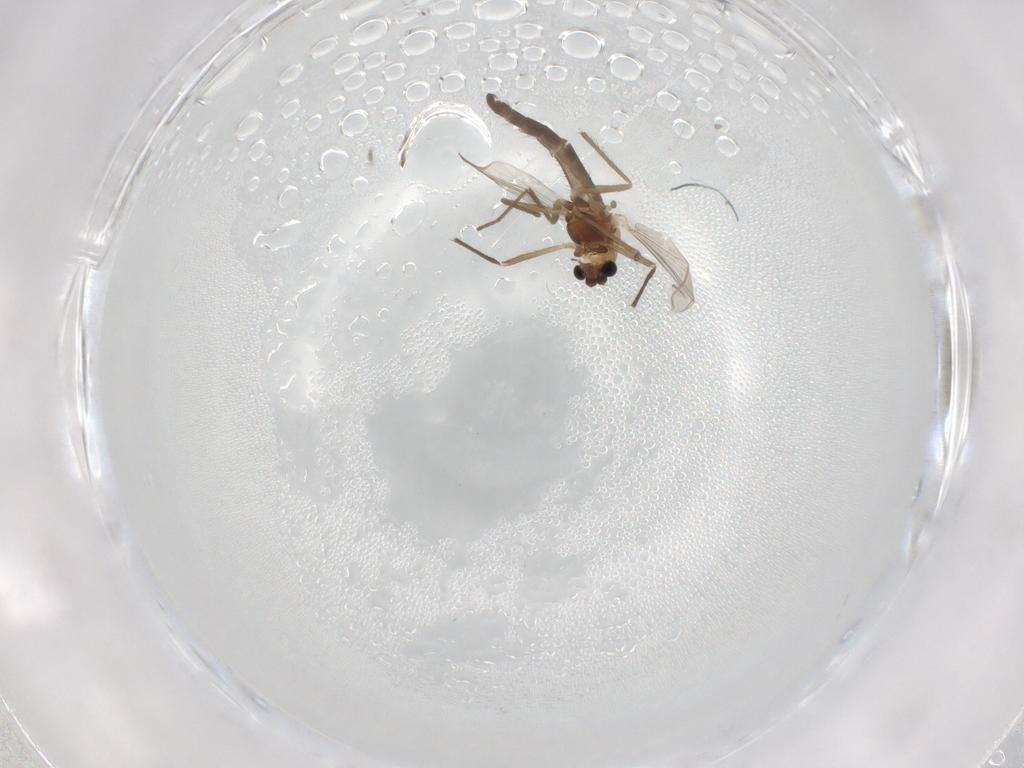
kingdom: Animalia
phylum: Arthropoda
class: Insecta
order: Diptera
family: Chironomidae
